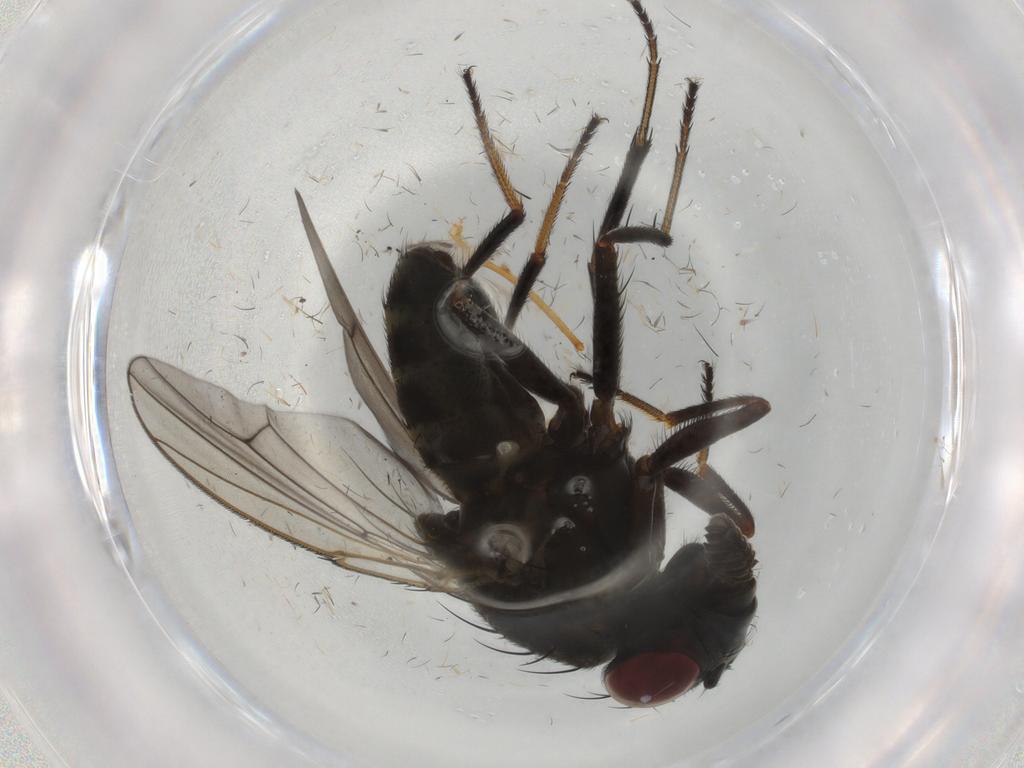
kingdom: Animalia
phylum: Arthropoda
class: Insecta
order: Diptera
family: Ephydridae
